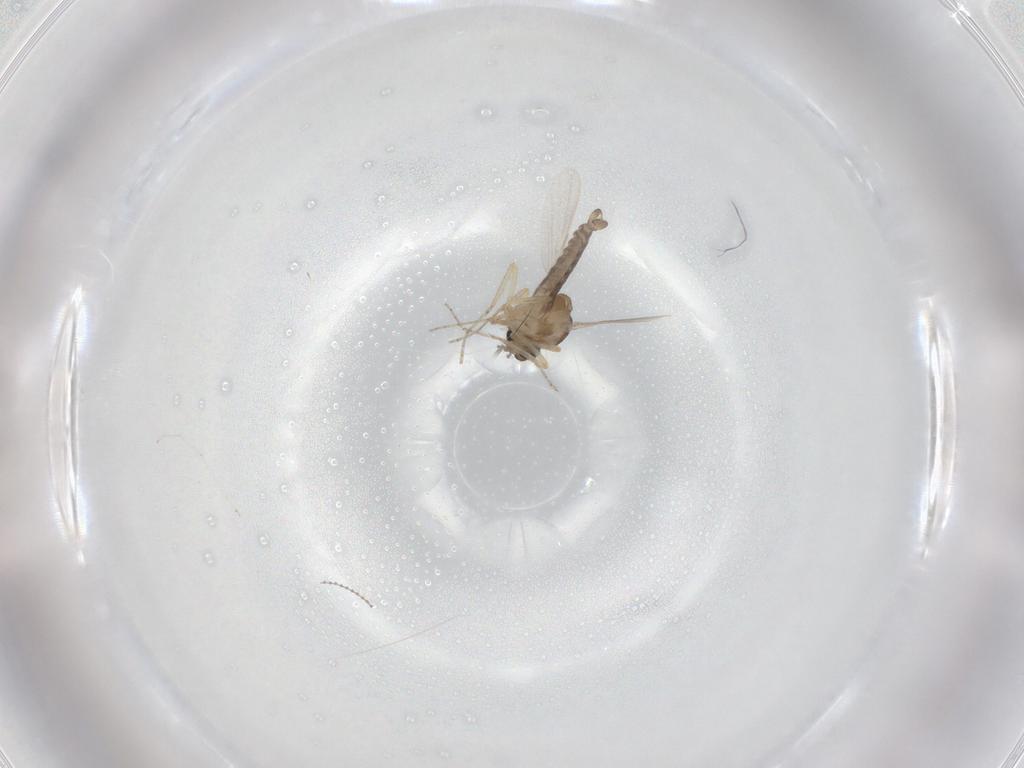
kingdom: Animalia
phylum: Arthropoda
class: Insecta
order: Diptera
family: Ceratopogonidae
